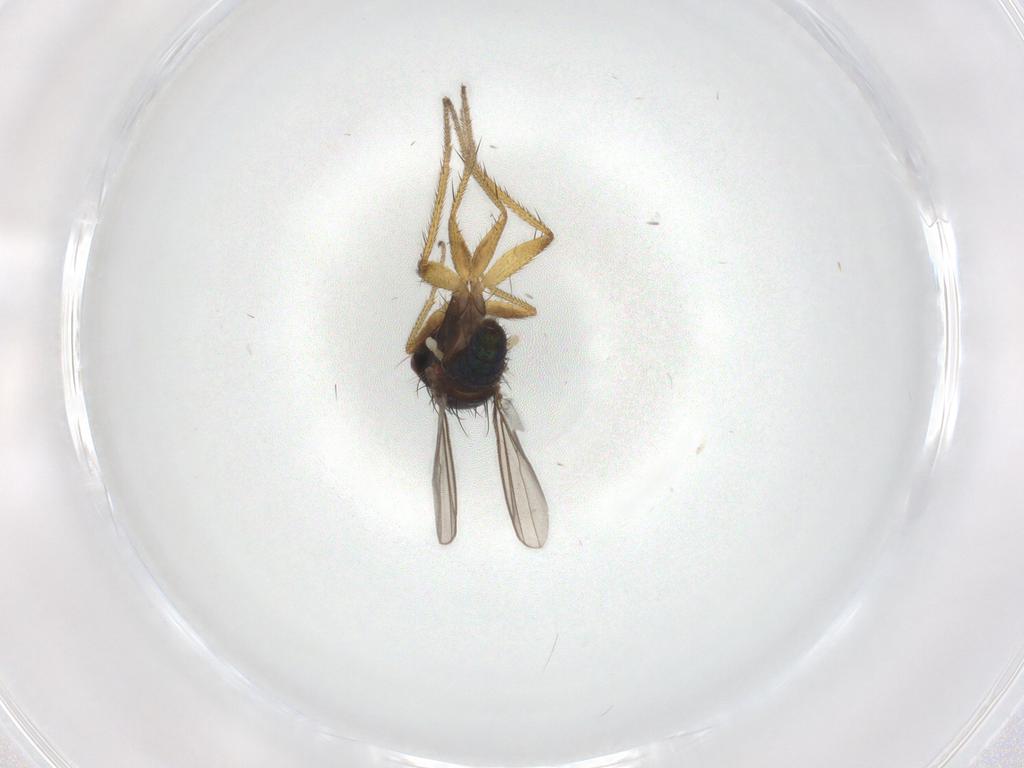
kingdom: Animalia
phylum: Arthropoda
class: Insecta
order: Diptera
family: Dolichopodidae
